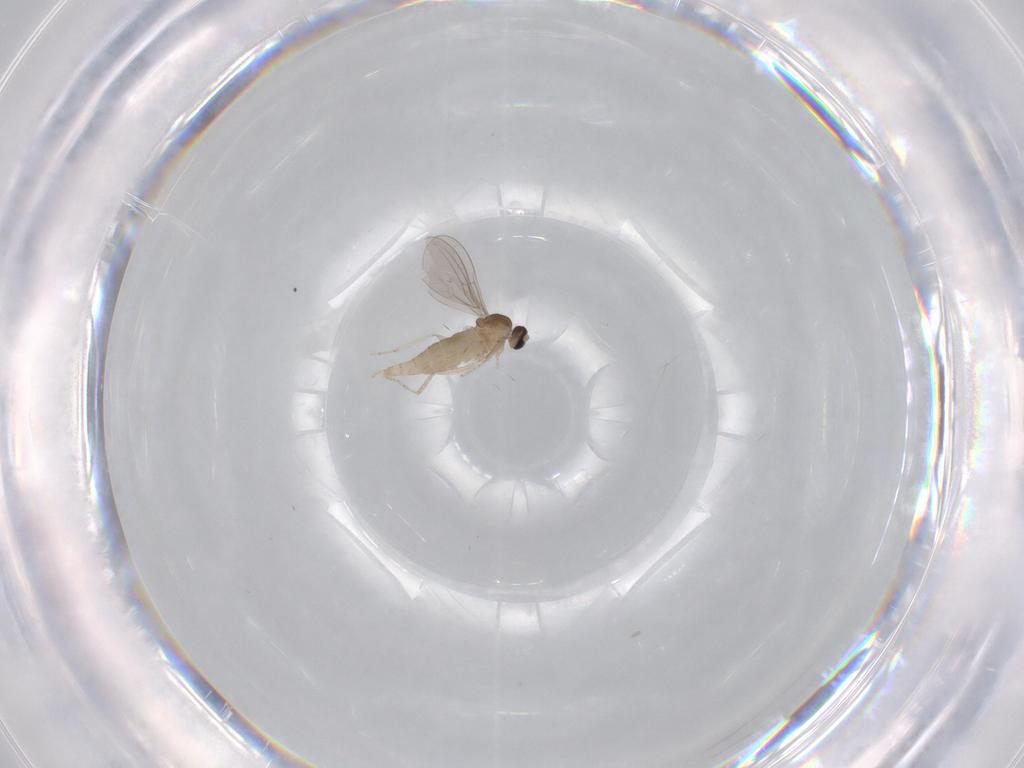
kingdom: Animalia
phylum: Arthropoda
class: Insecta
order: Diptera
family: Cecidomyiidae
